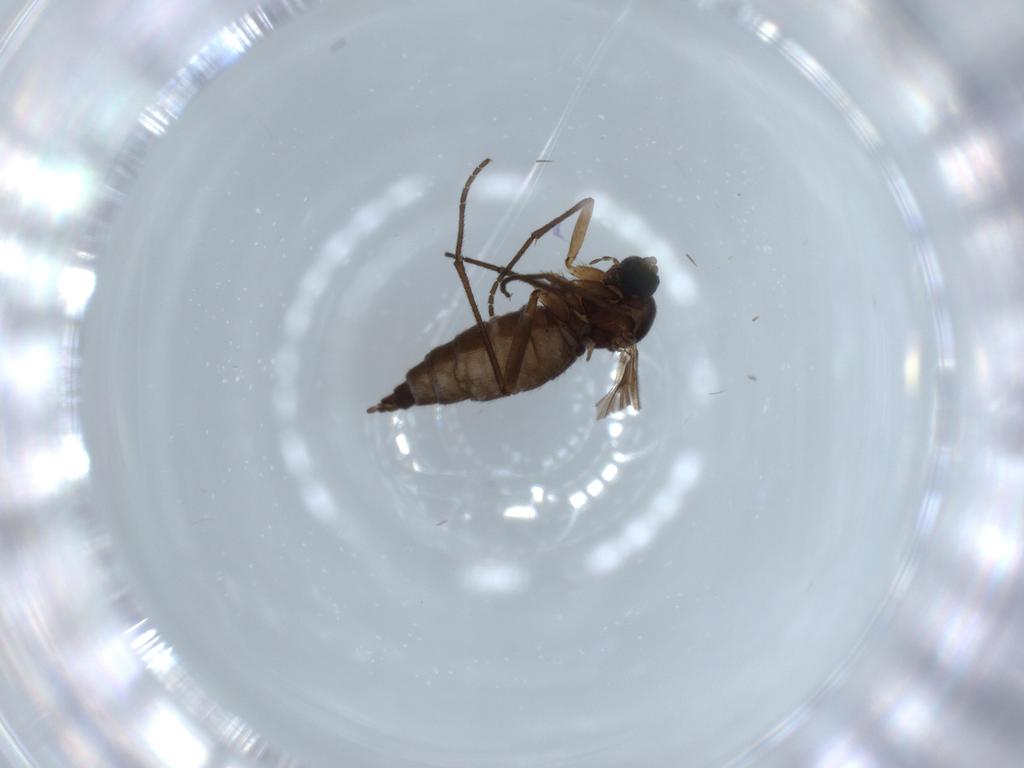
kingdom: Animalia
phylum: Arthropoda
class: Insecta
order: Diptera
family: Sciaridae
